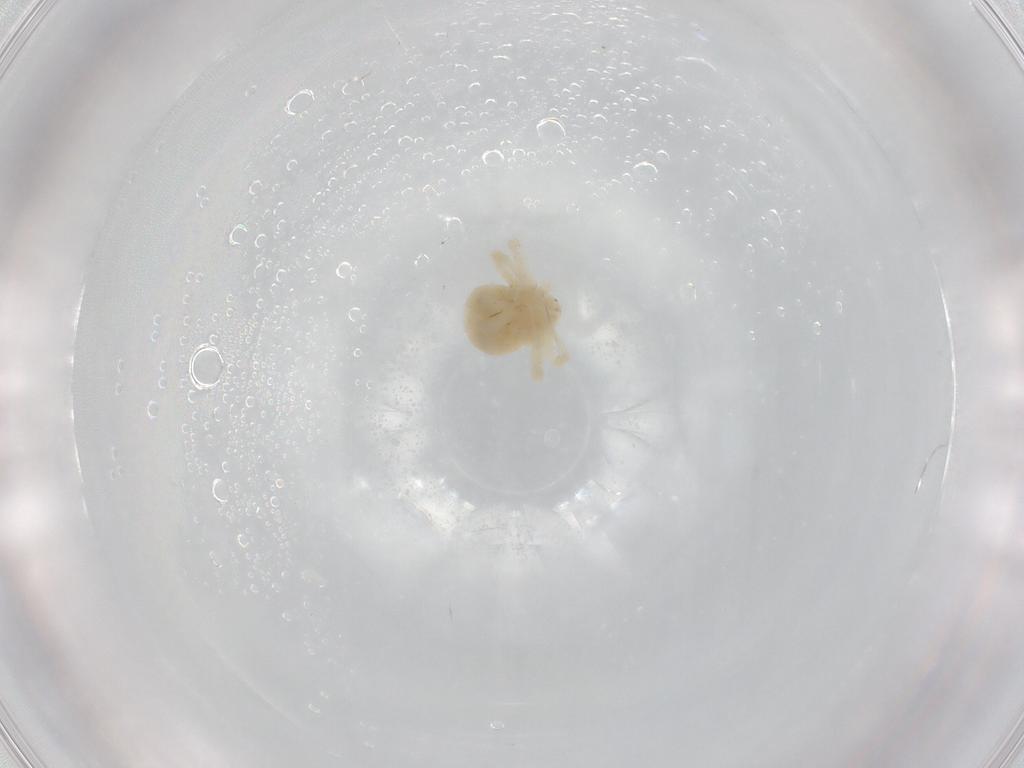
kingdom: Animalia
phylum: Arthropoda
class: Arachnida
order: Trombidiformes
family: Anystidae
